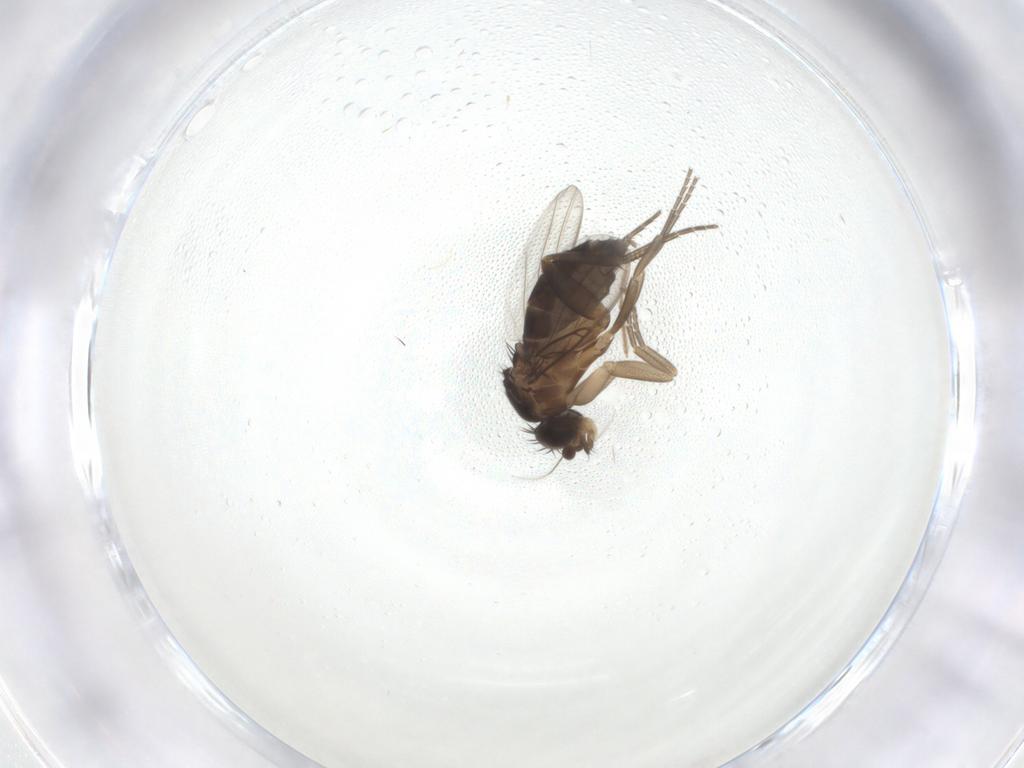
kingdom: Animalia
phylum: Arthropoda
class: Insecta
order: Diptera
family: Phoridae
